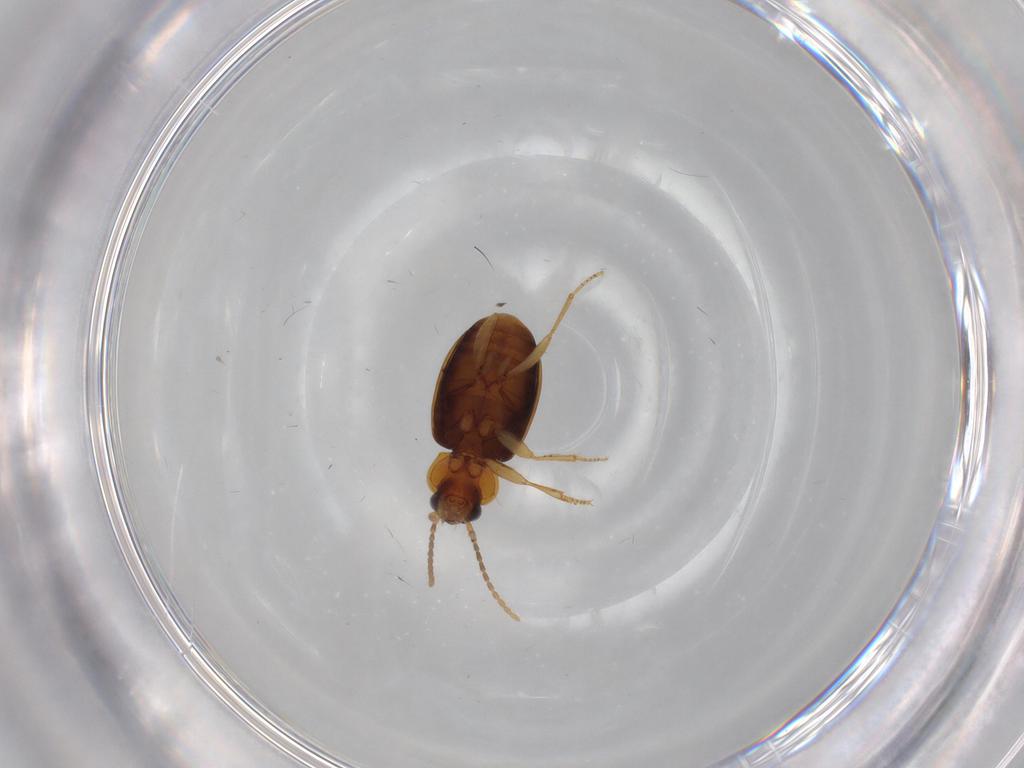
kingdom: Animalia
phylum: Arthropoda
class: Insecta
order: Coleoptera
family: Carabidae
